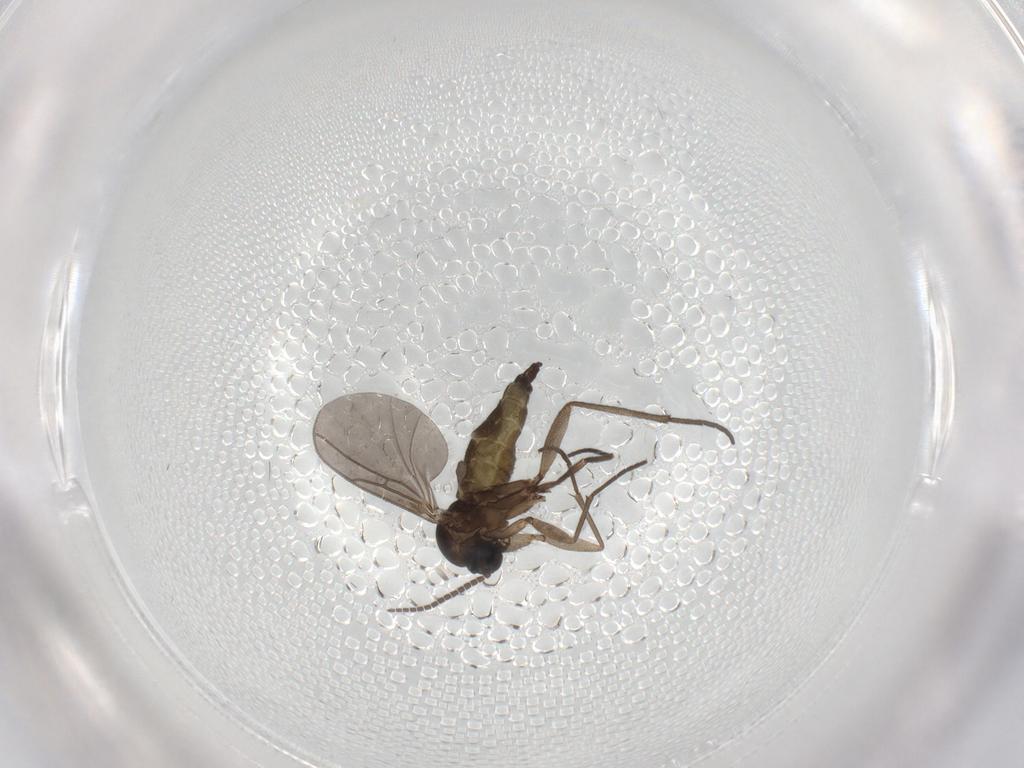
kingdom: Animalia
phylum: Arthropoda
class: Insecta
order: Diptera
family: Sciaridae
